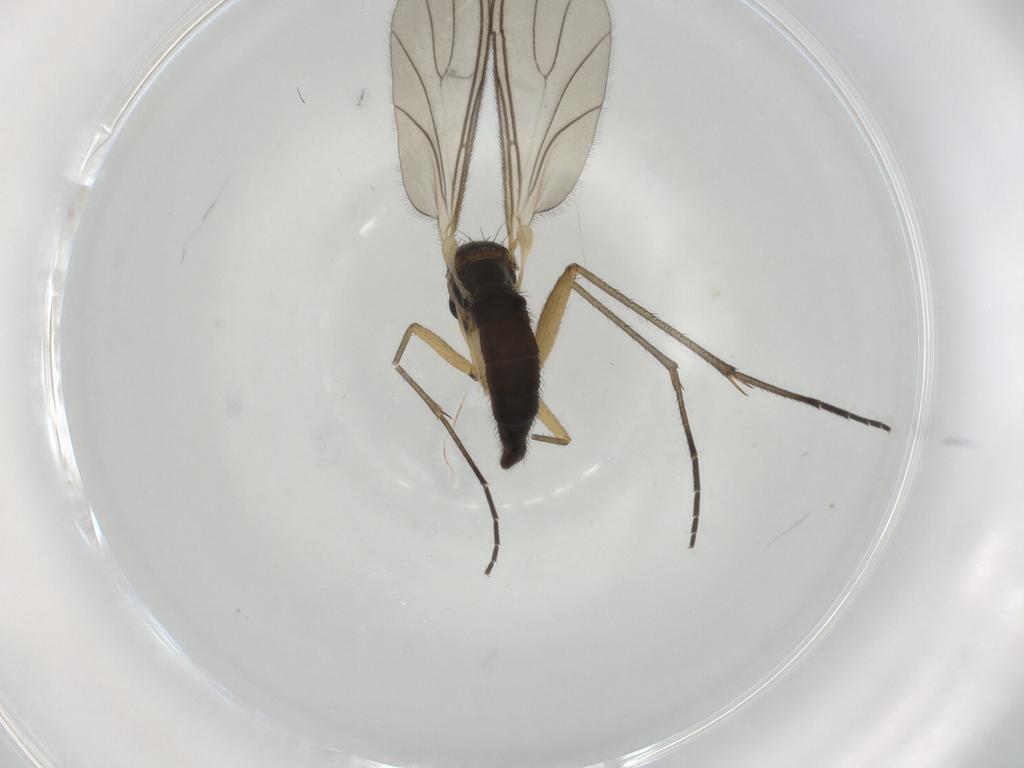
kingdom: Animalia
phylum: Arthropoda
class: Insecta
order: Diptera
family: Sciaridae
